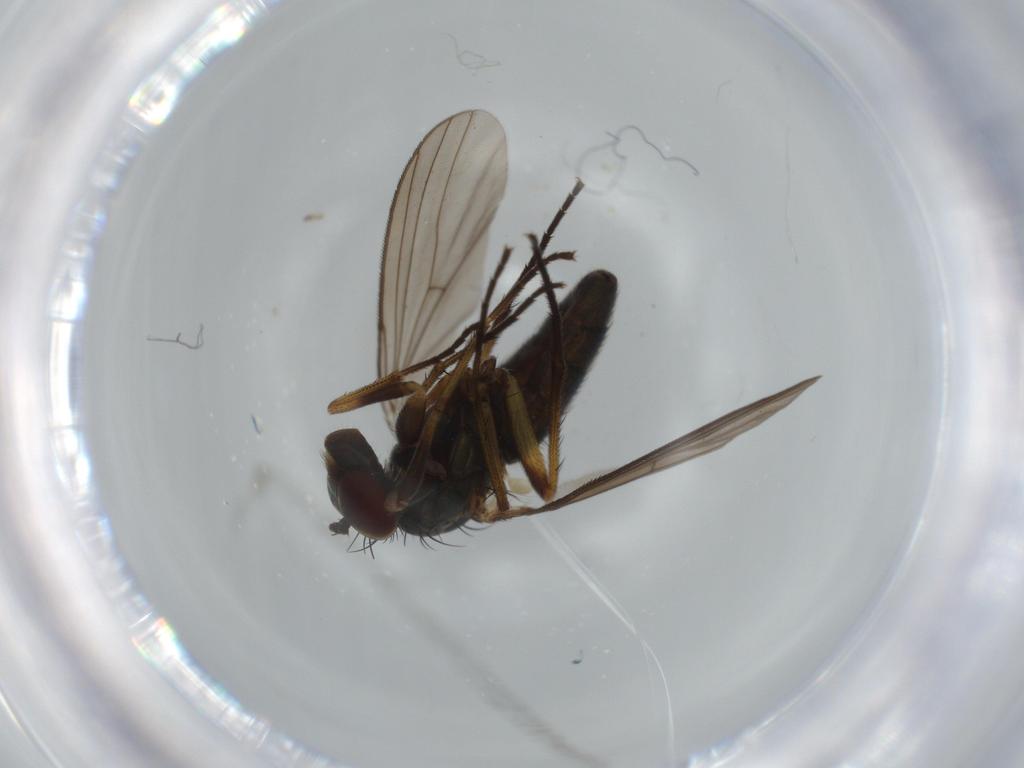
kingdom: Animalia
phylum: Arthropoda
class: Insecta
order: Diptera
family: Dolichopodidae
